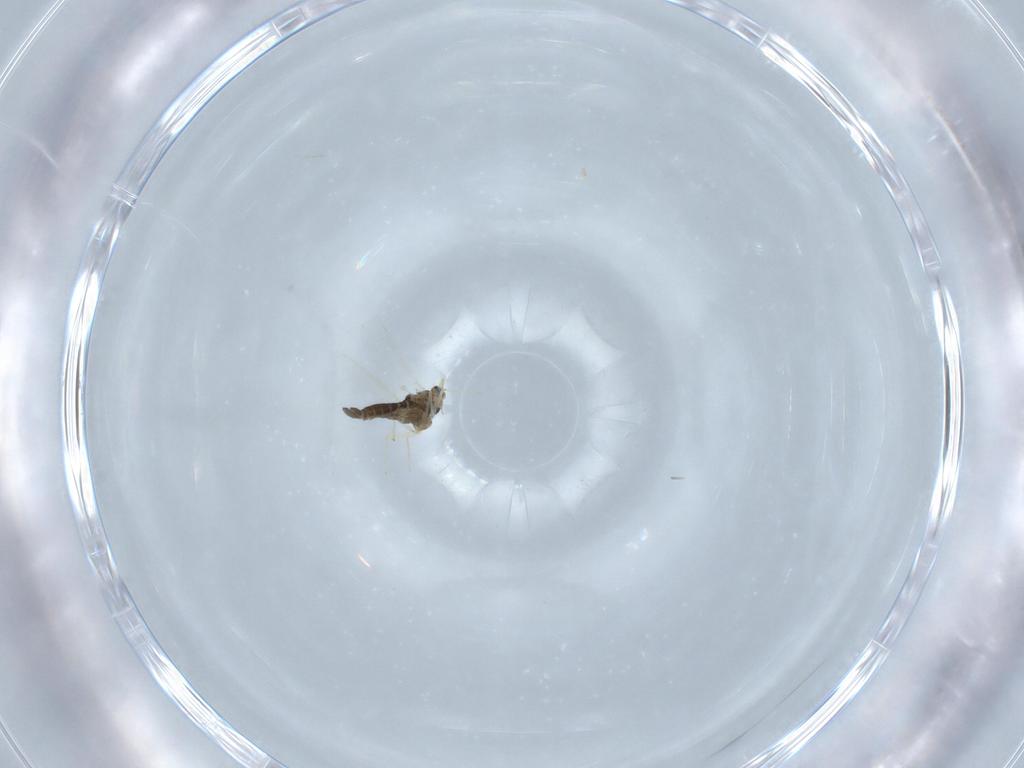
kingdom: Animalia
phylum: Arthropoda
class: Insecta
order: Diptera
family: Chironomidae
